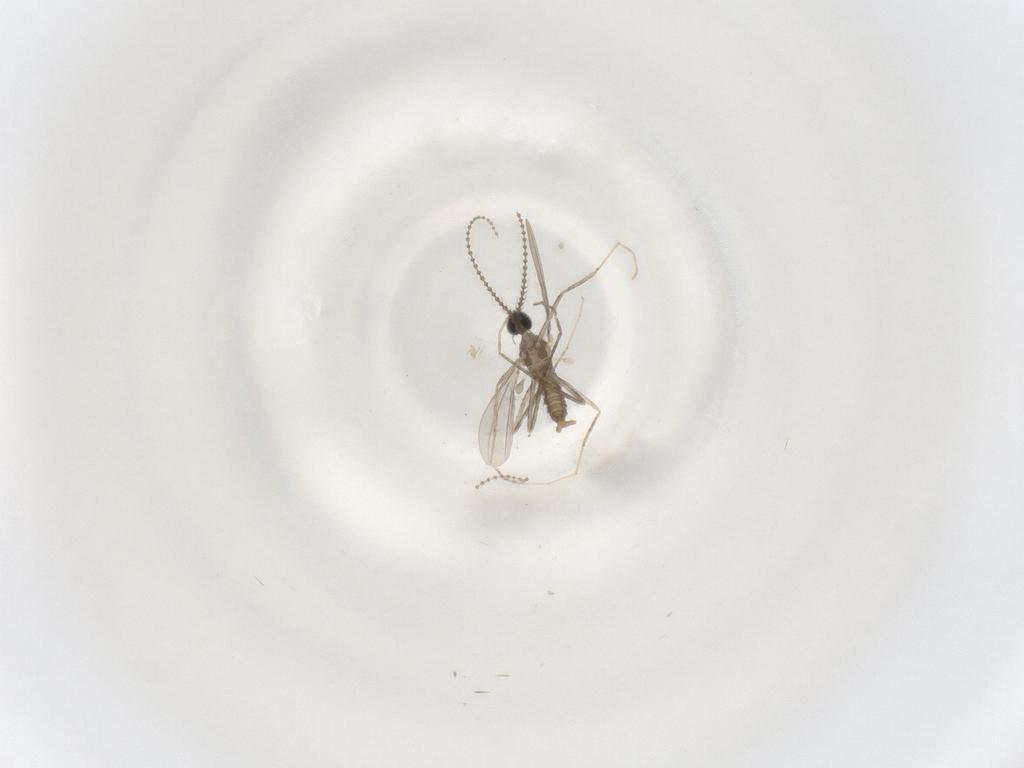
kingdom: Animalia
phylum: Arthropoda
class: Insecta
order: Diptera
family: Cecidomyiidae
